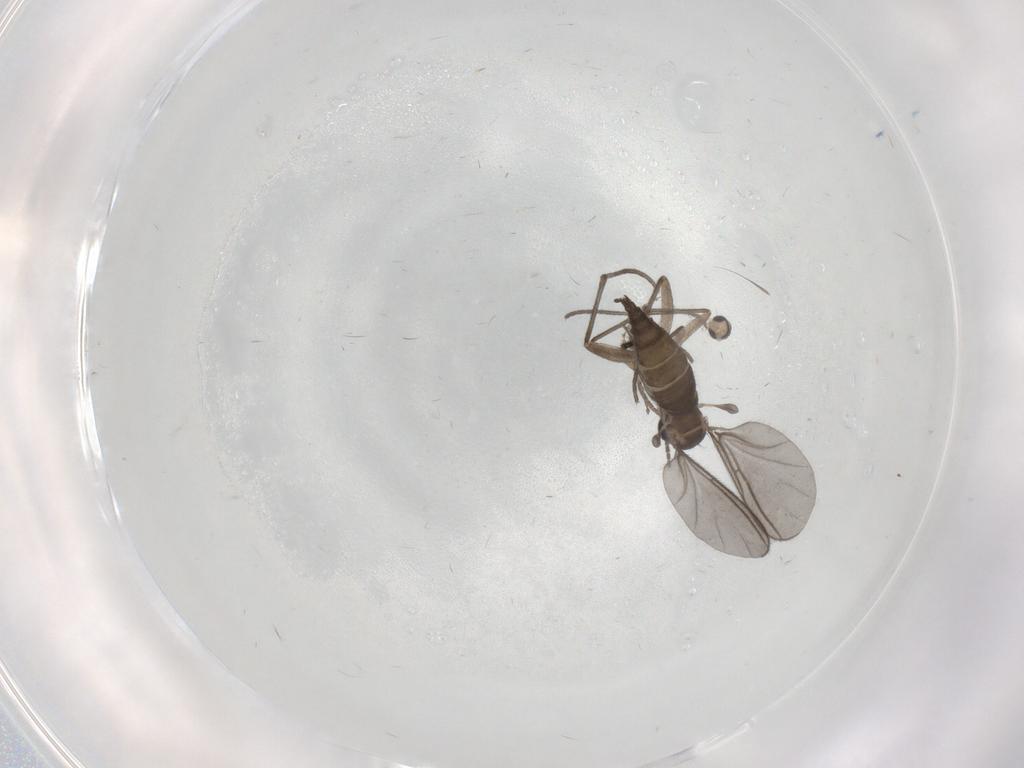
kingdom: Animalia
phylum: Arthropoda
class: Insecta
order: Diptera
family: Sciaridae
